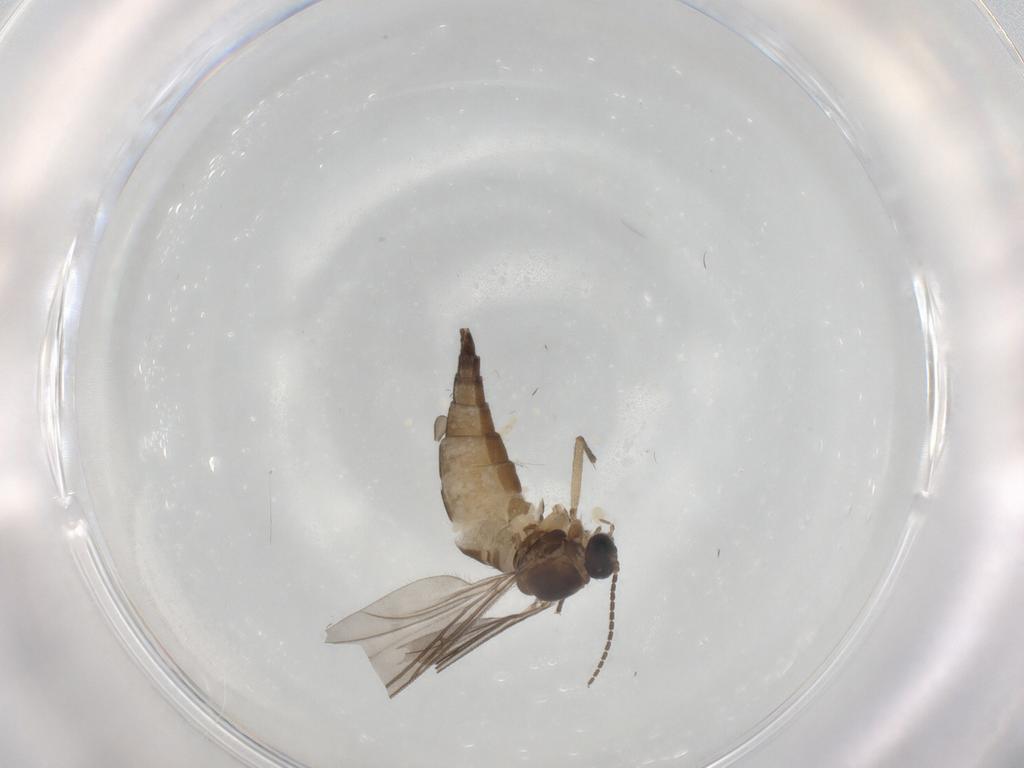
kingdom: Animalia
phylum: Arthropoda
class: Insecta
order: Diptera
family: Sciaridae
